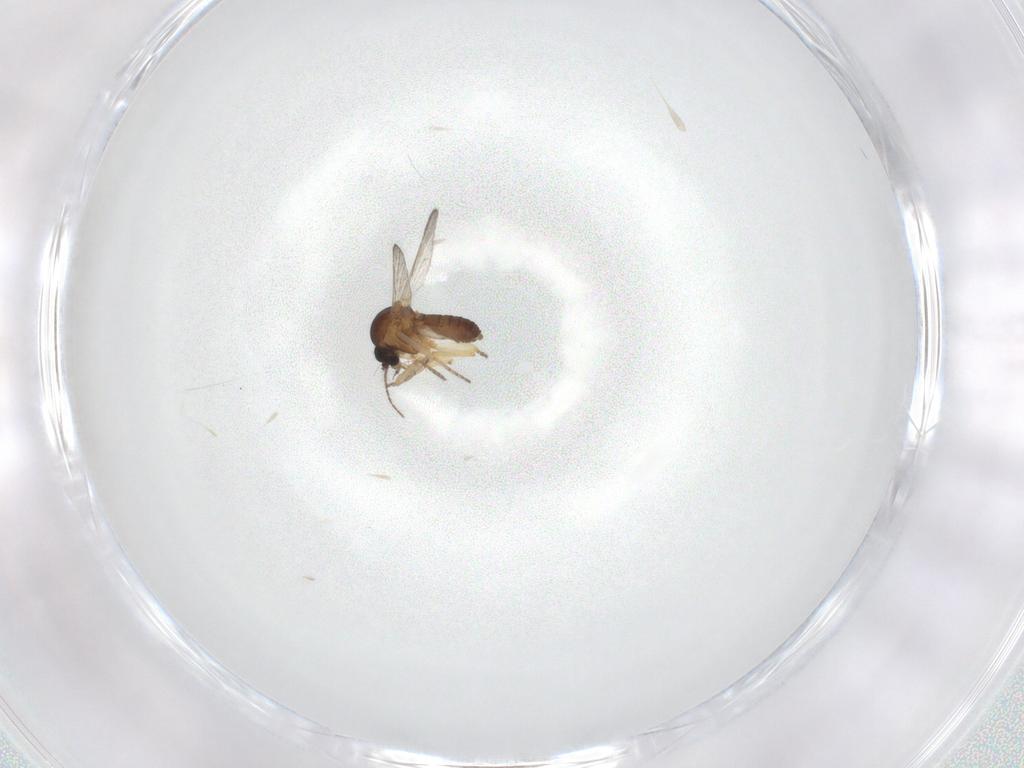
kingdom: Animalia
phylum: Arthropoda
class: Insecta
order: Diptera
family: Ceratopogonidae
